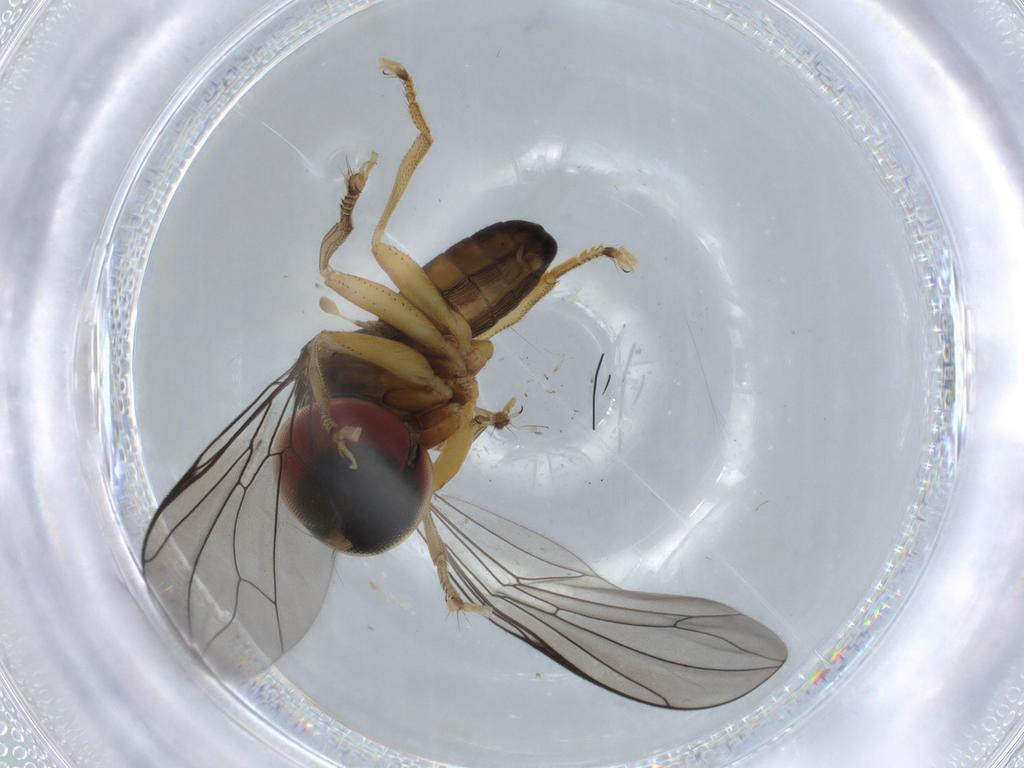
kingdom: Animalia
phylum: Arthropoda
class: Insecta
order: Diptera
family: Pipunculidae
